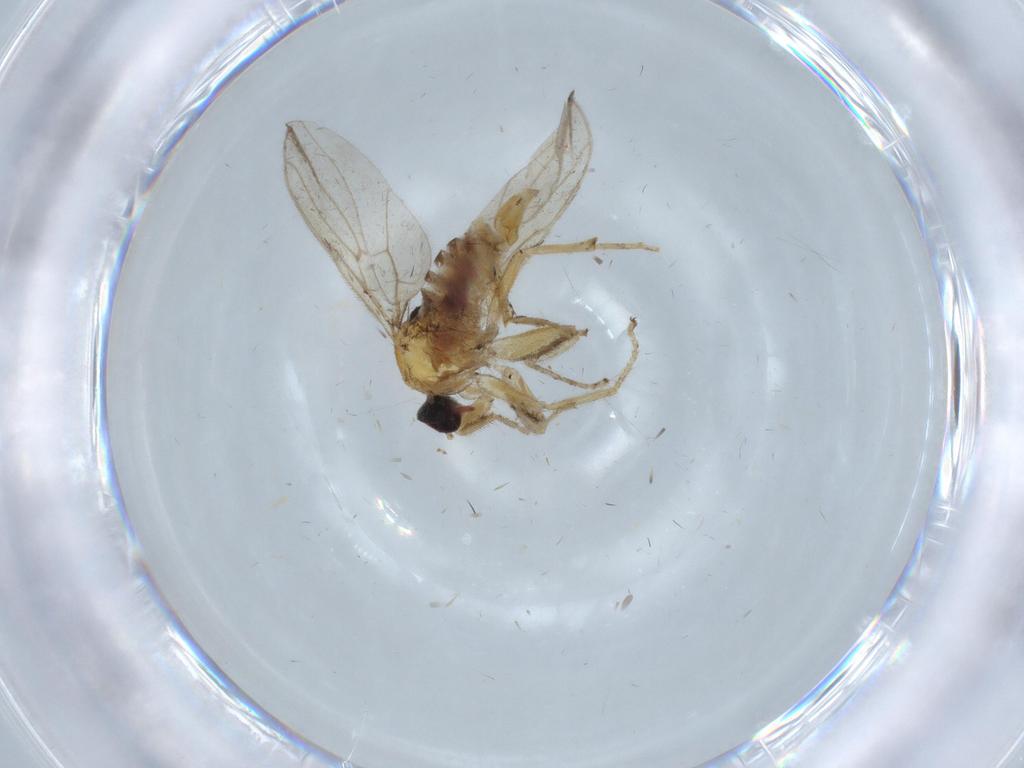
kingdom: Animalia
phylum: Arthropoda
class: Insecta
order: Diptera
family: Hybotidae
